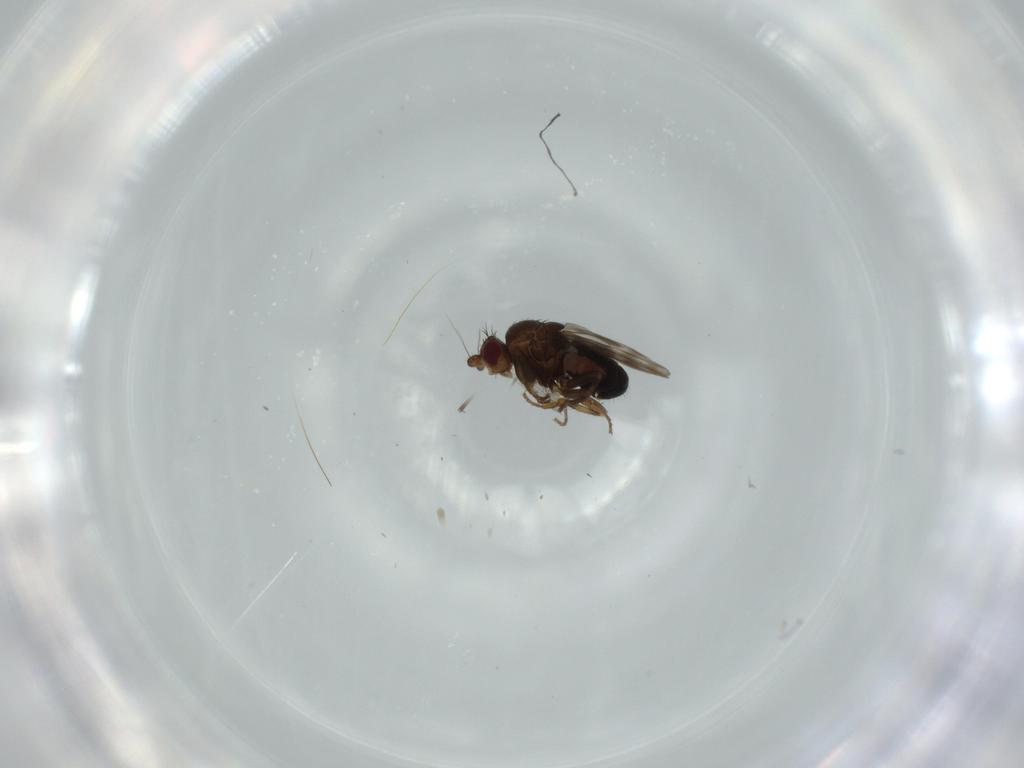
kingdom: Animalia
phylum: Arthropoda
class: Insecta
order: Diptera
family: Sphaeroceridae
